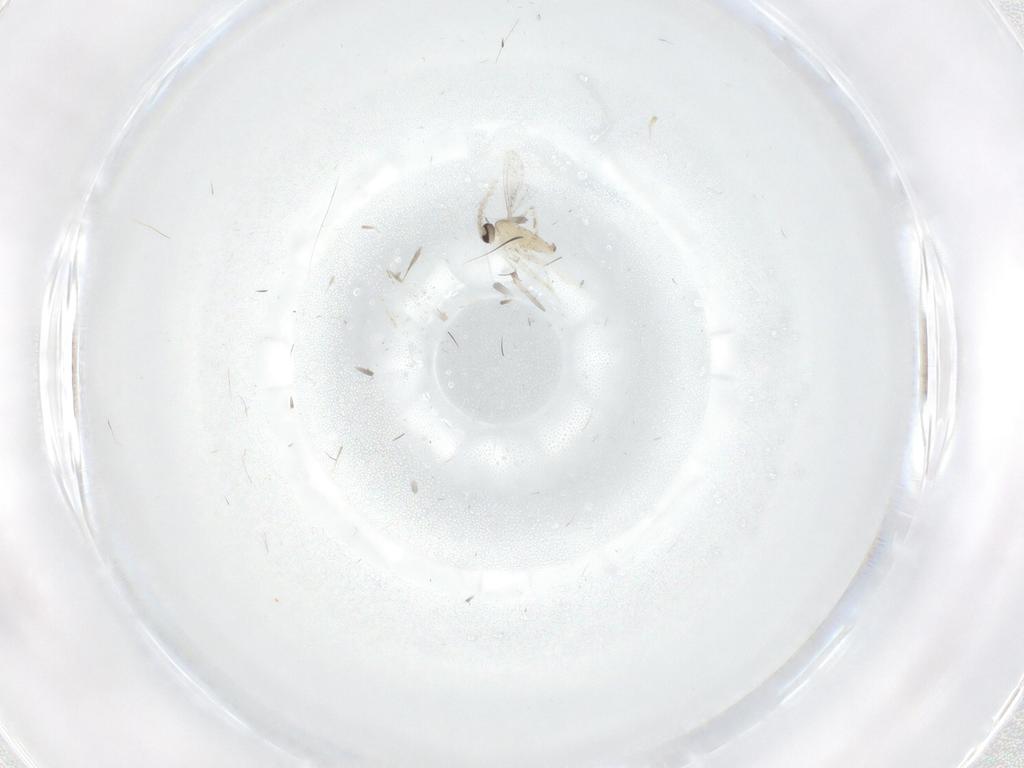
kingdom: Animalia
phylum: Arthropoda
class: Insecta
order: Diptera
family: Cecidomyiidae
